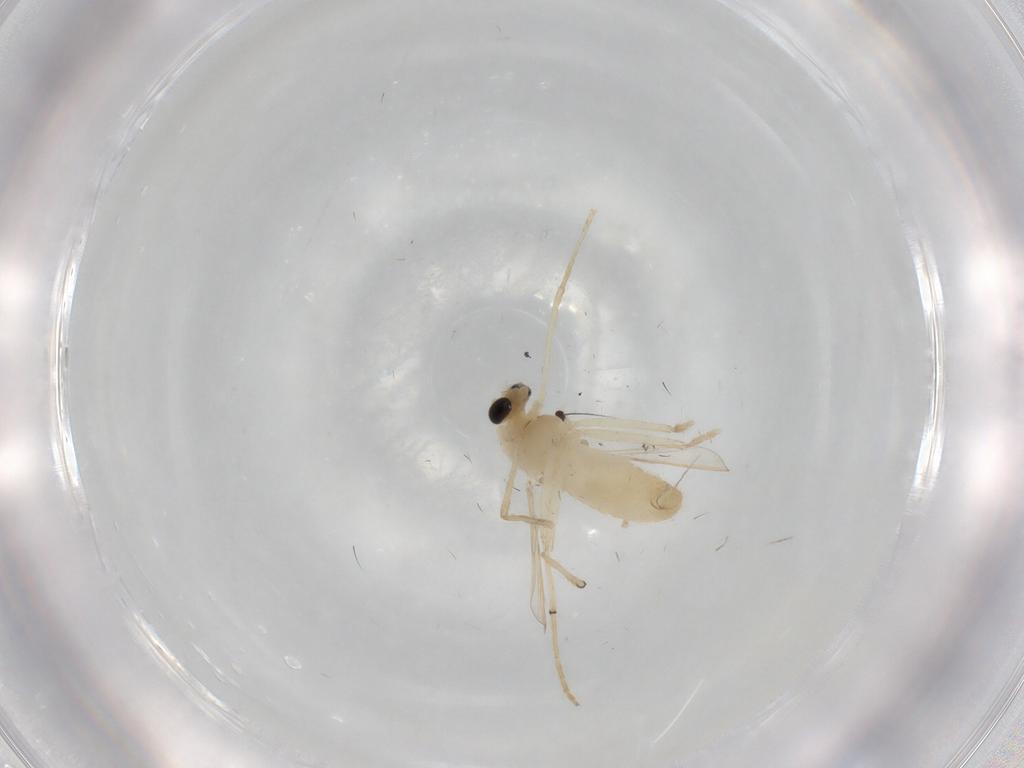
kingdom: Animalia
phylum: Arthropoda
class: Insecta
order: Diptera
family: Chironomidae
